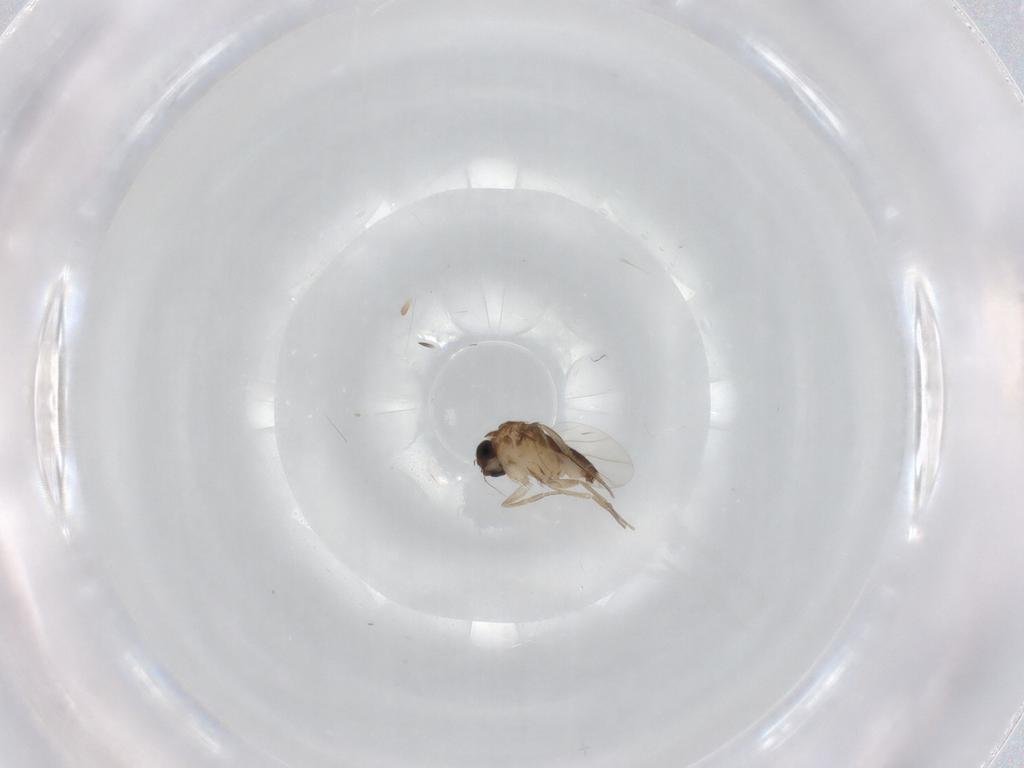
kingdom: Animalia
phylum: Arthropoda
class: Insecta
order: Diptera
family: Phoridae
